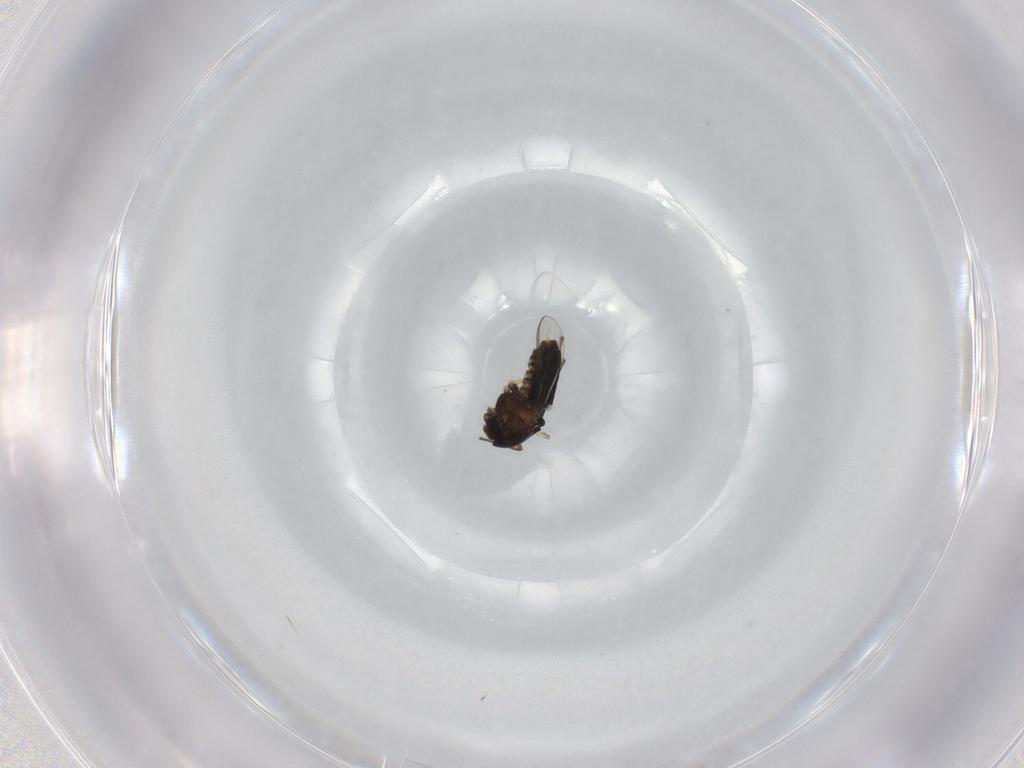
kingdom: Animalia
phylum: Arthropoda
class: Insecta
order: Diptera
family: Chironomidae
